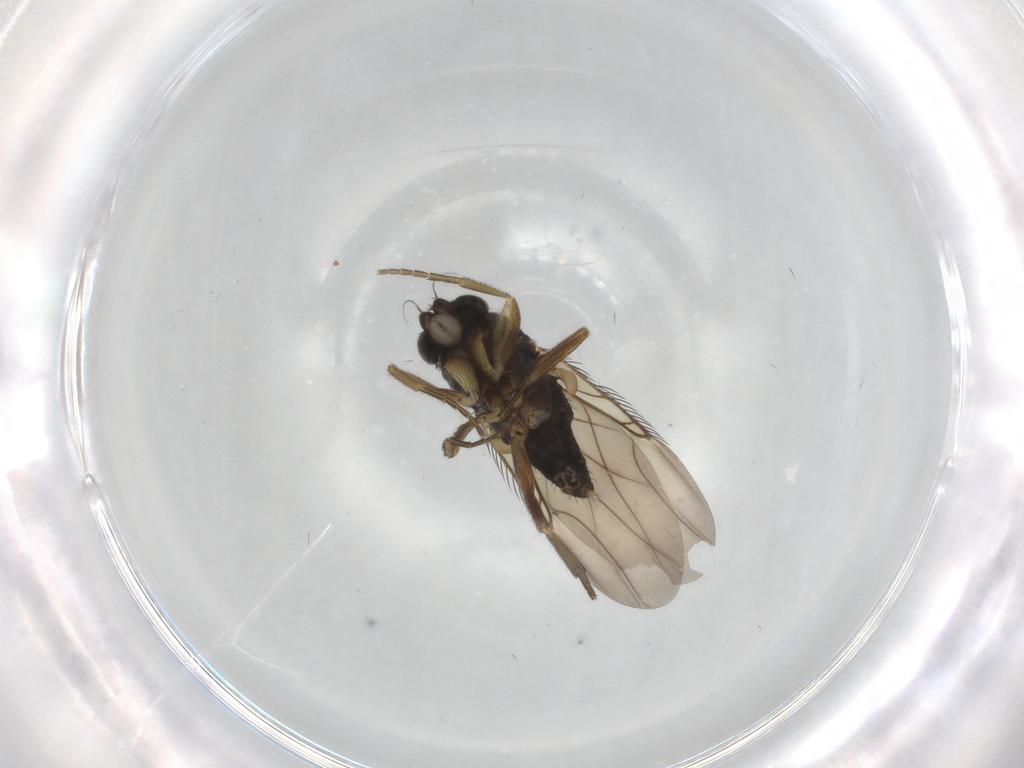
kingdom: Animalia
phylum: Arthropoda
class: Insecta
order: Diptera
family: Phoridae
